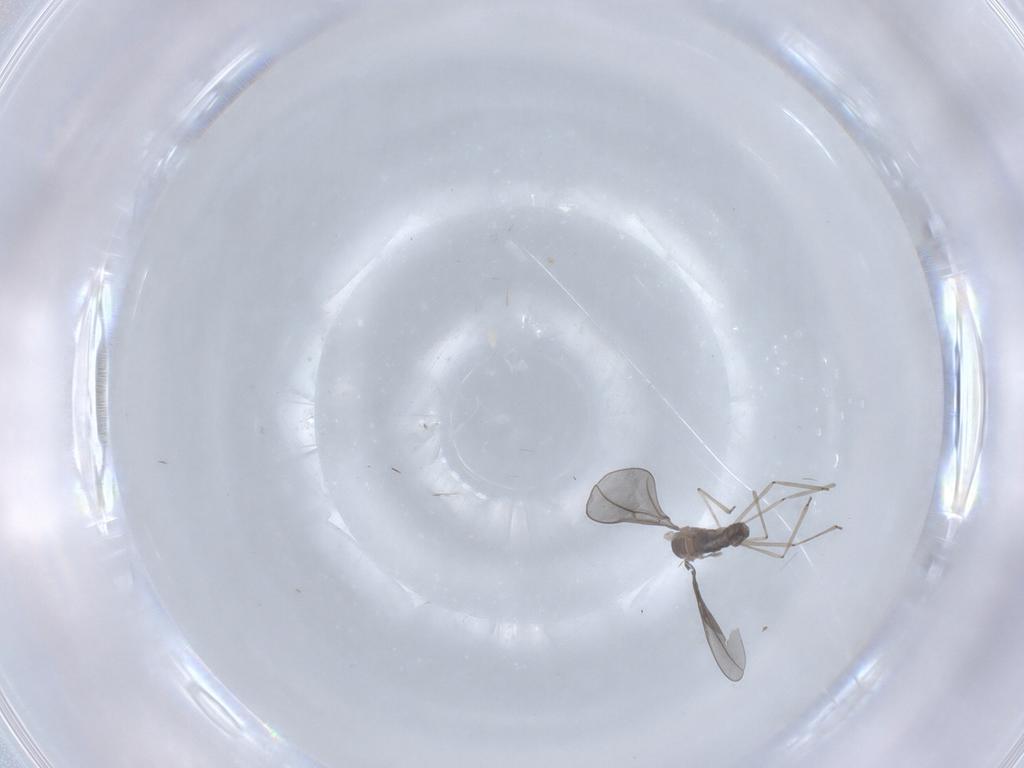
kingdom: Animalia
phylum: Arthropoda
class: Insecta
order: Diptera
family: Cecidomyiidae
